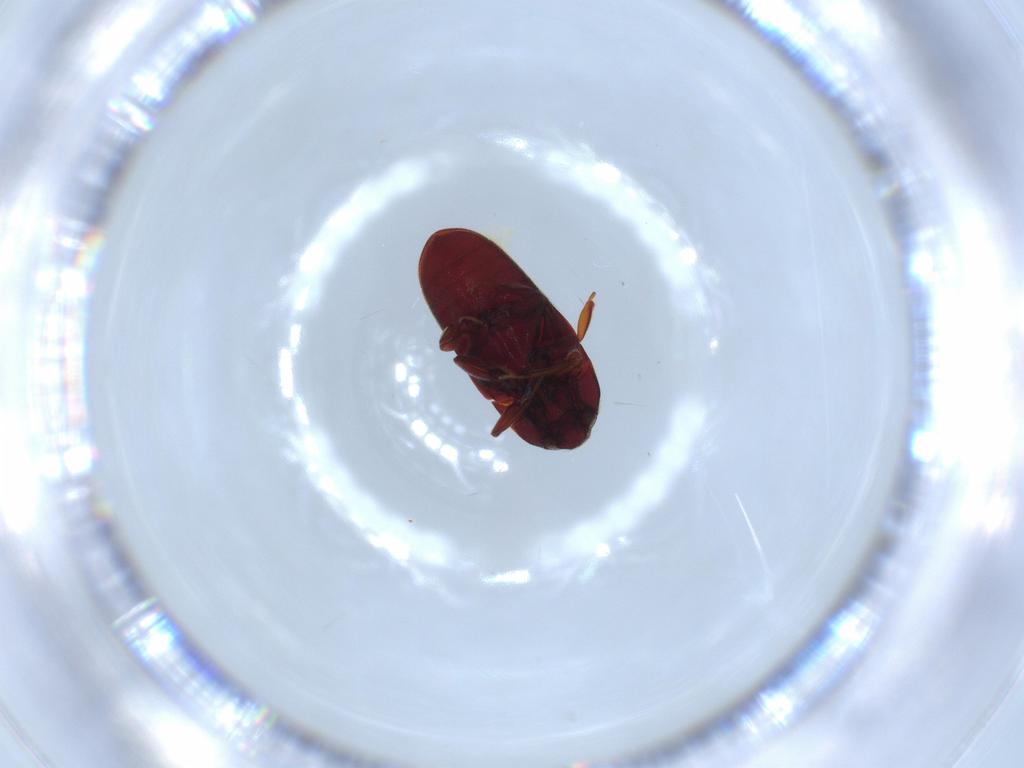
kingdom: Animalia
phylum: Arthropoda
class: Insecta
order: Coleoptera
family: Throscidae
